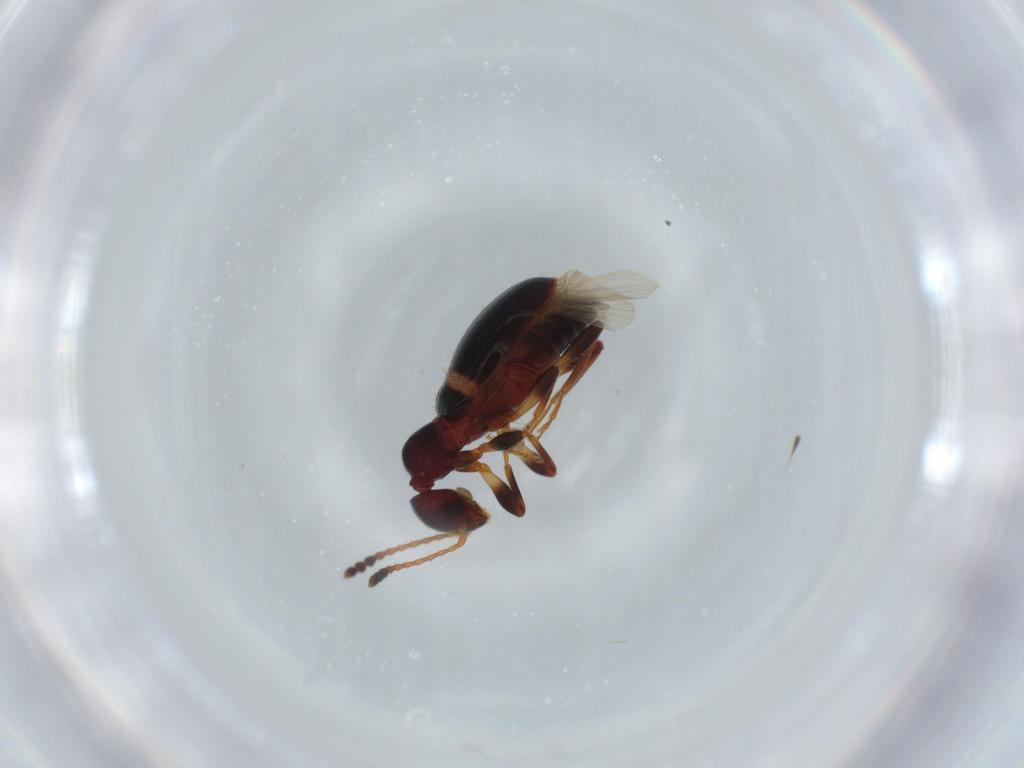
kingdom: Animalia
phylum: Arthropoda
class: Insecta
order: Coleoptera
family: Anthicidae
